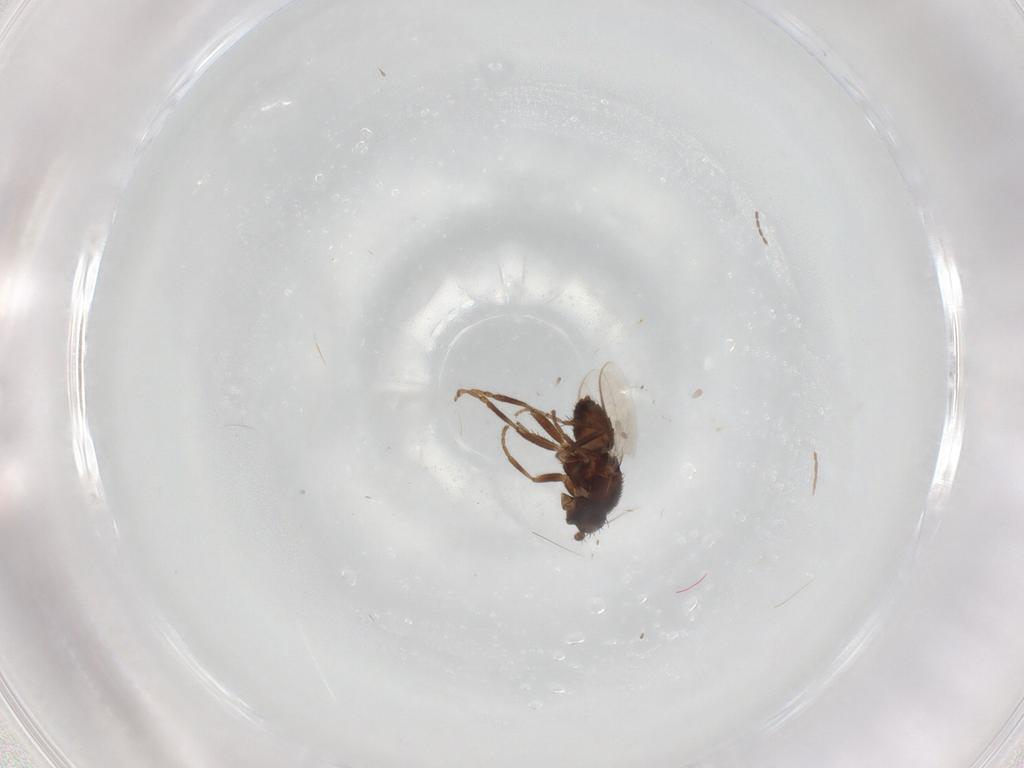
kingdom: Animalia
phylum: Arthropoda
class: Insecta
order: Diptera
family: Sphaeroceridae
